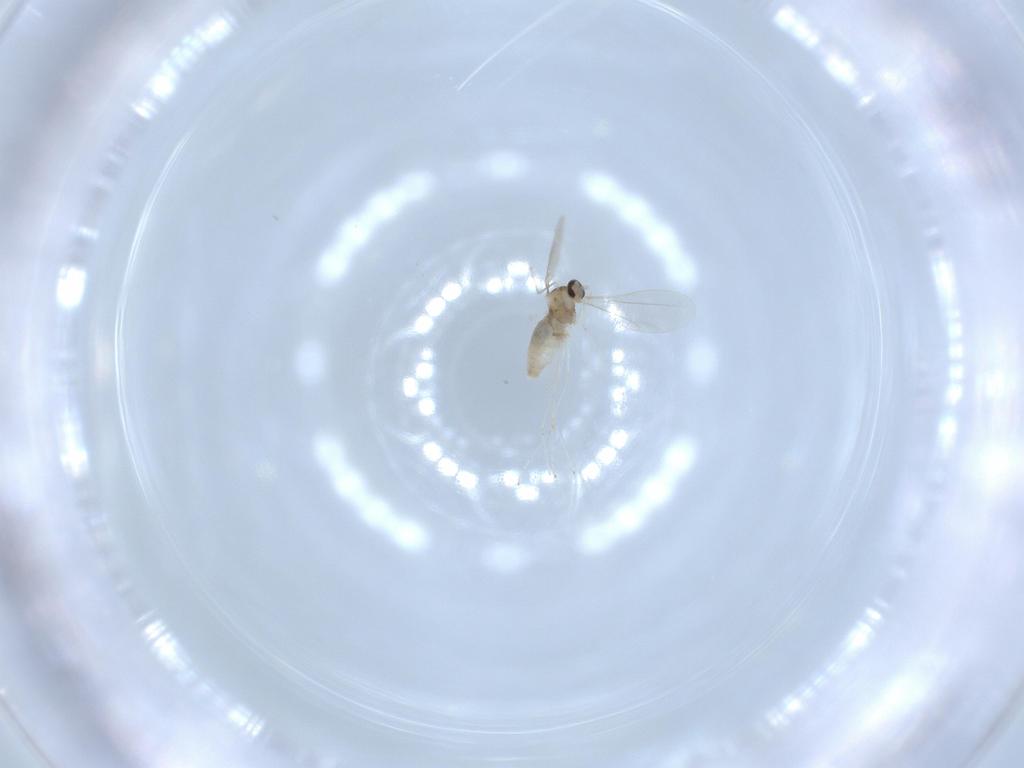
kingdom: Animalia
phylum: Arthropoda
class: Insecta
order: Diptera
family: Cecidomyiidae
